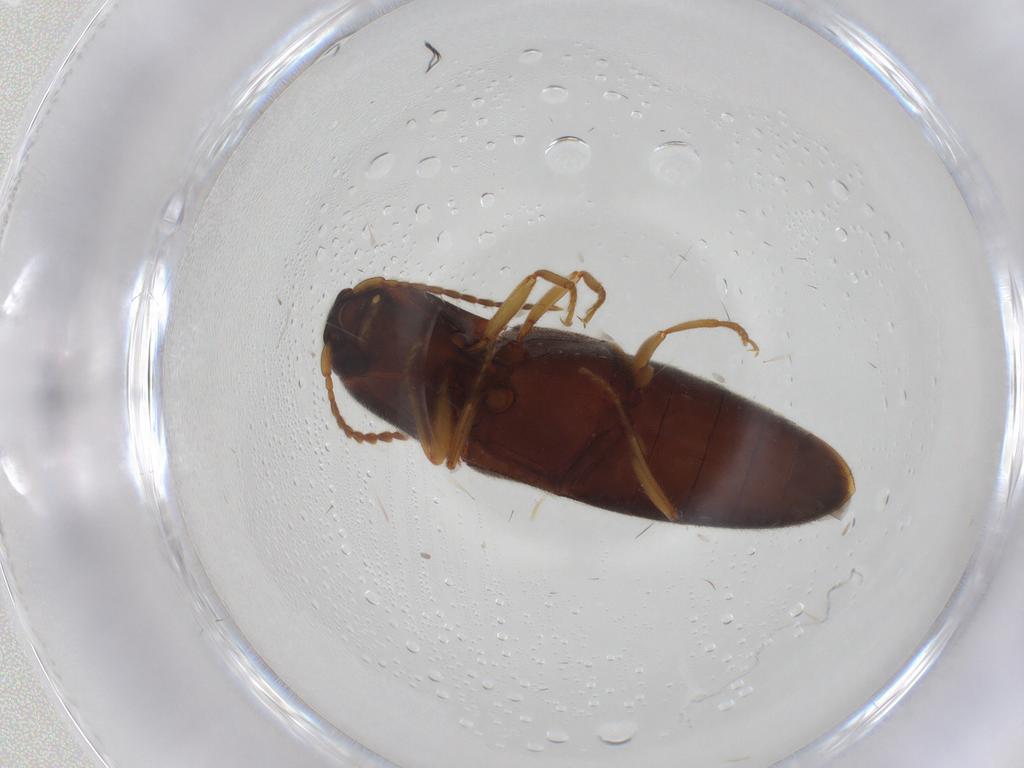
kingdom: Animalia
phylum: Arthropoda
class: Insecta
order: Coleoptera
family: Elateridae
